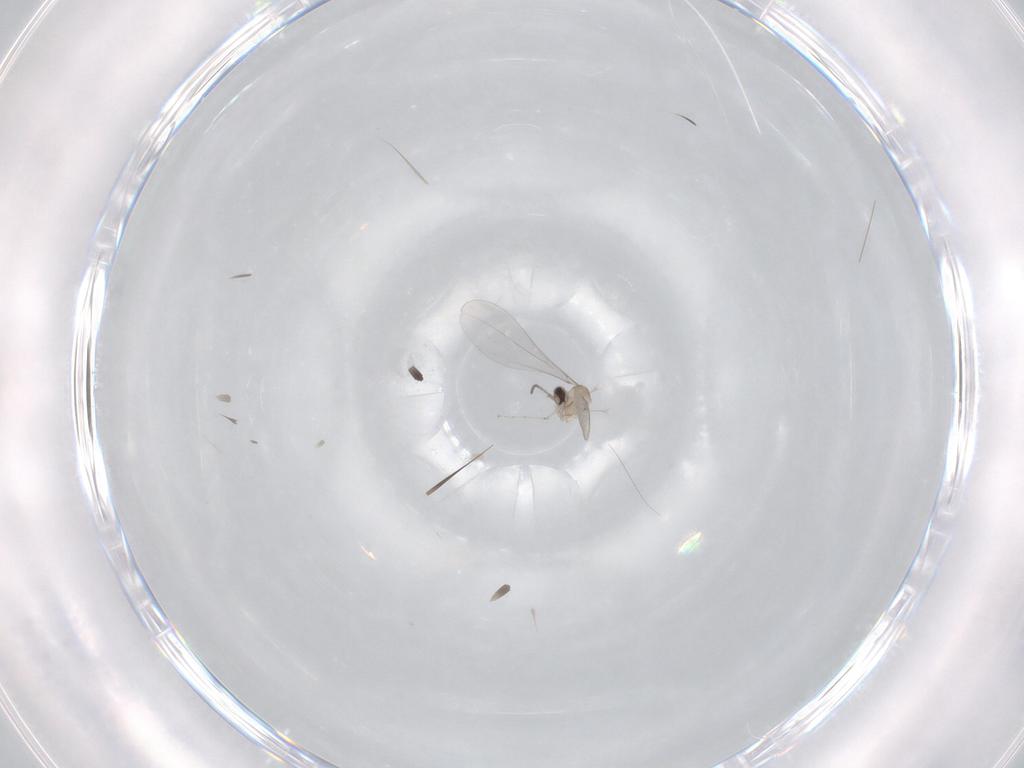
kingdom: Animalia
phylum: Arthropoda
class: Insecta
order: Diptera
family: Cecidomyiidae
